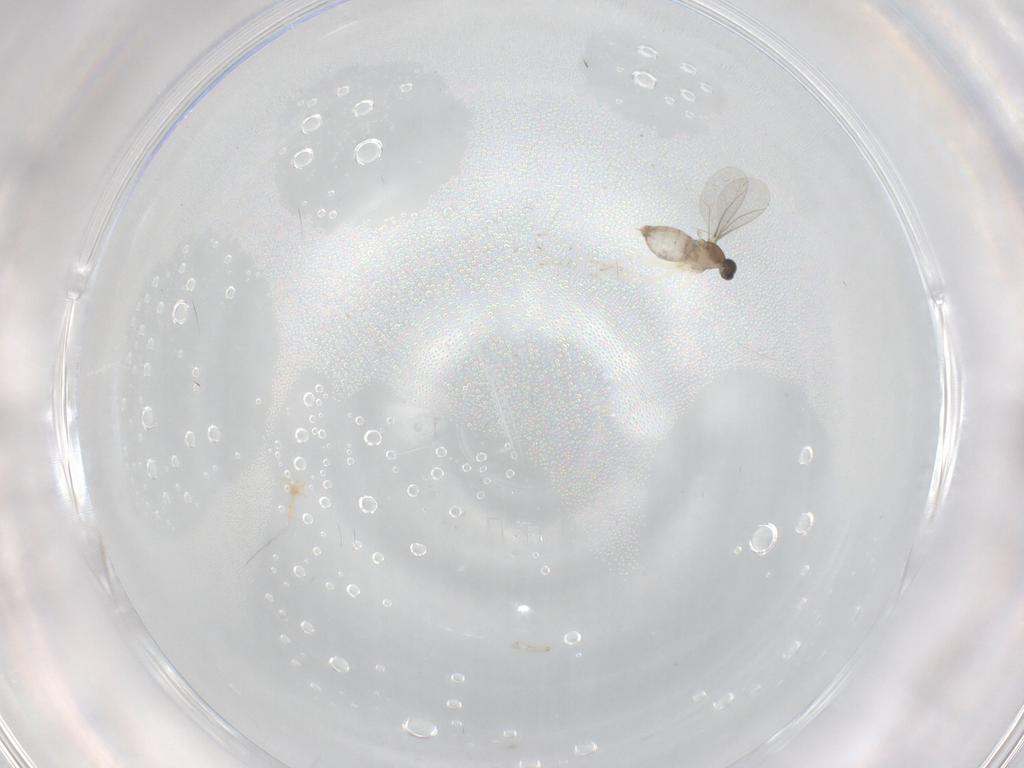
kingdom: Animalia
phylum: Arthropoda
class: Insecta
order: Diptera
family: Cecidomyiidae
